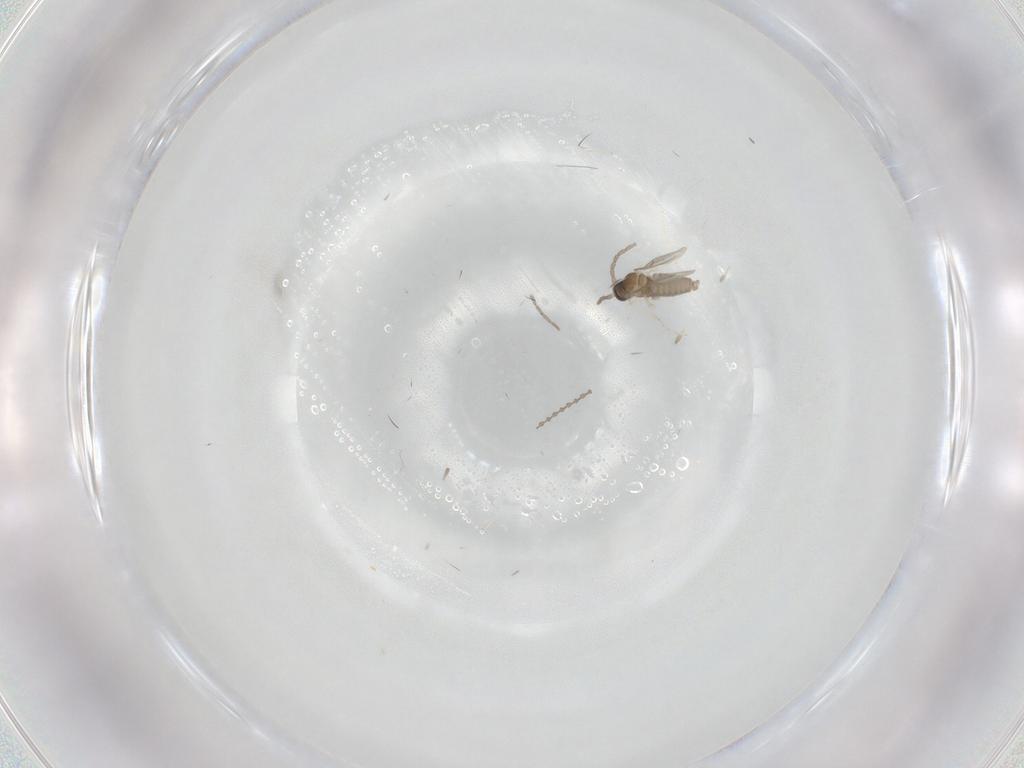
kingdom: Animalia
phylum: Arthropoda
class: Insecta
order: Diptera
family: Cecidomyiidae
